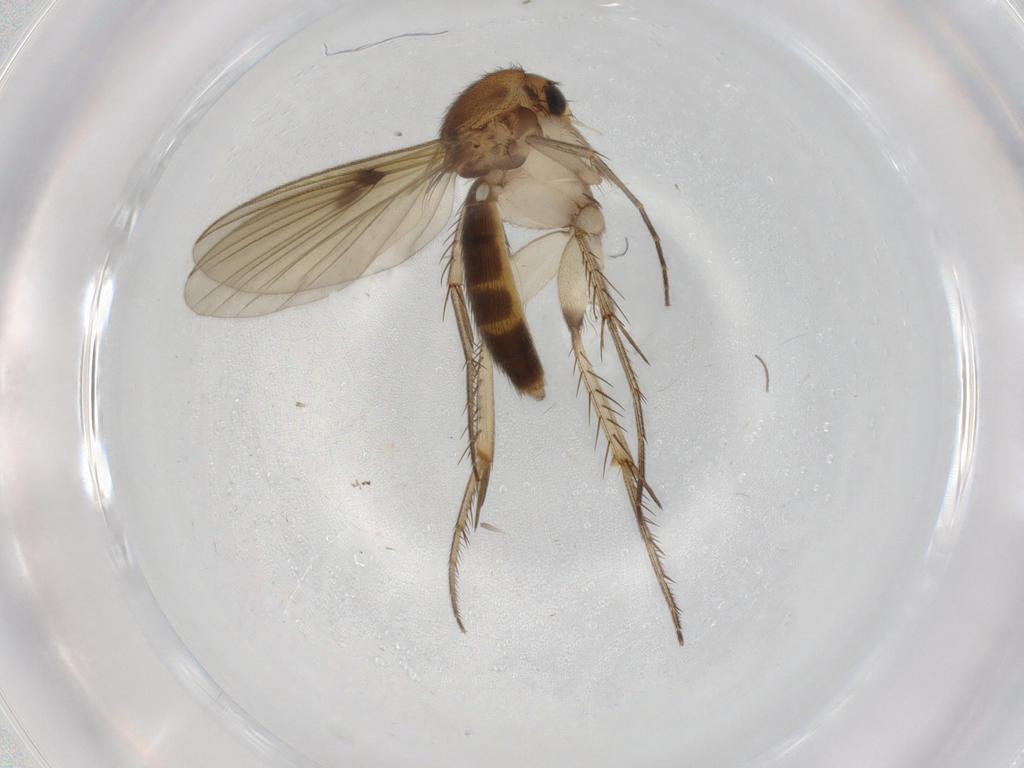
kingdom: Animalia
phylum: Arthropoda
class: Insecta
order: Diptera
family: Mycetophilidae
